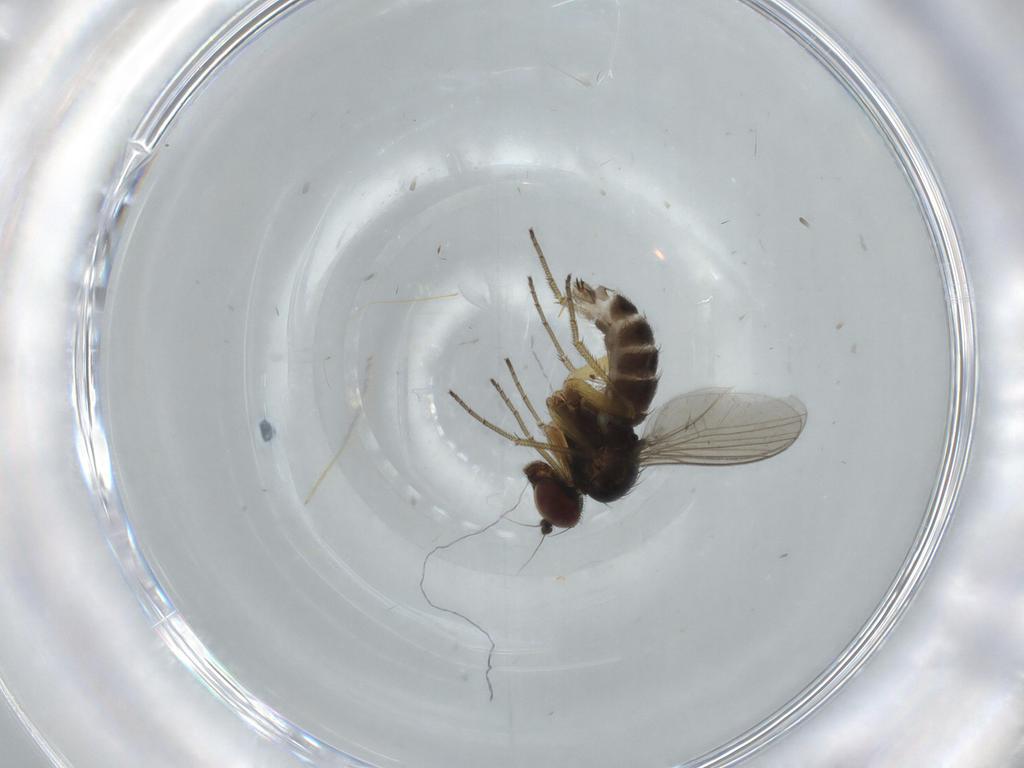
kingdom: Animalia
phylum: Arthropoda
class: Insecta
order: Diptera
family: Dolichopodidae
